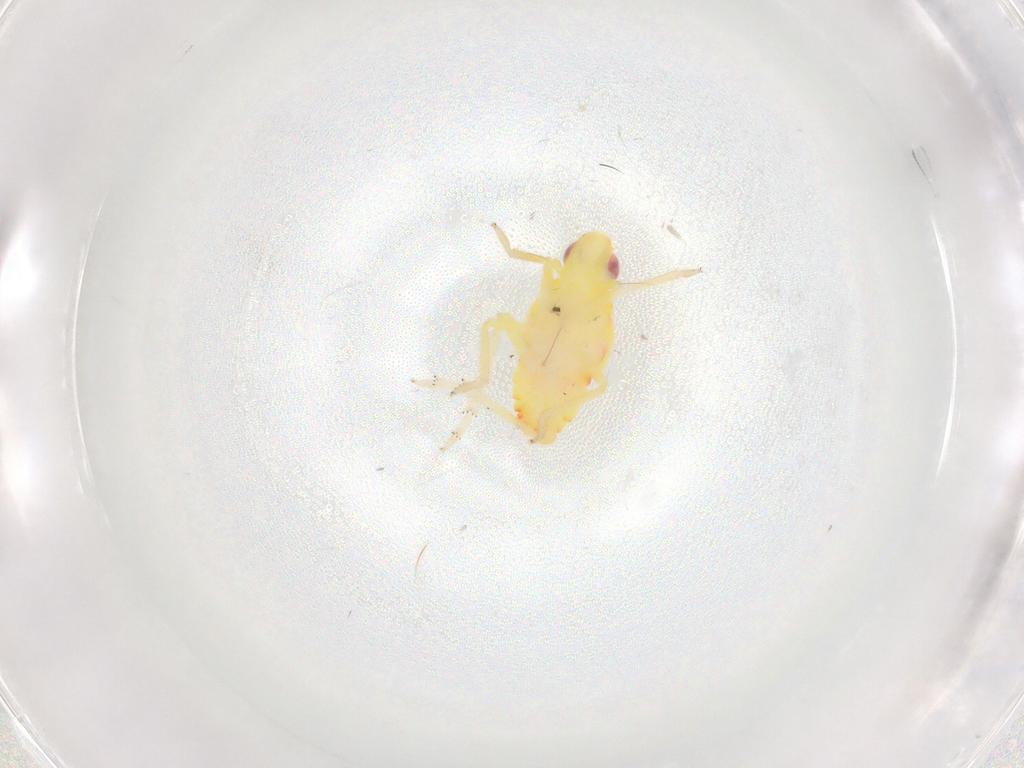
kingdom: Animalia
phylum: Arthropoda
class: Insecta
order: Hemiptera
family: Tropiduchidae
